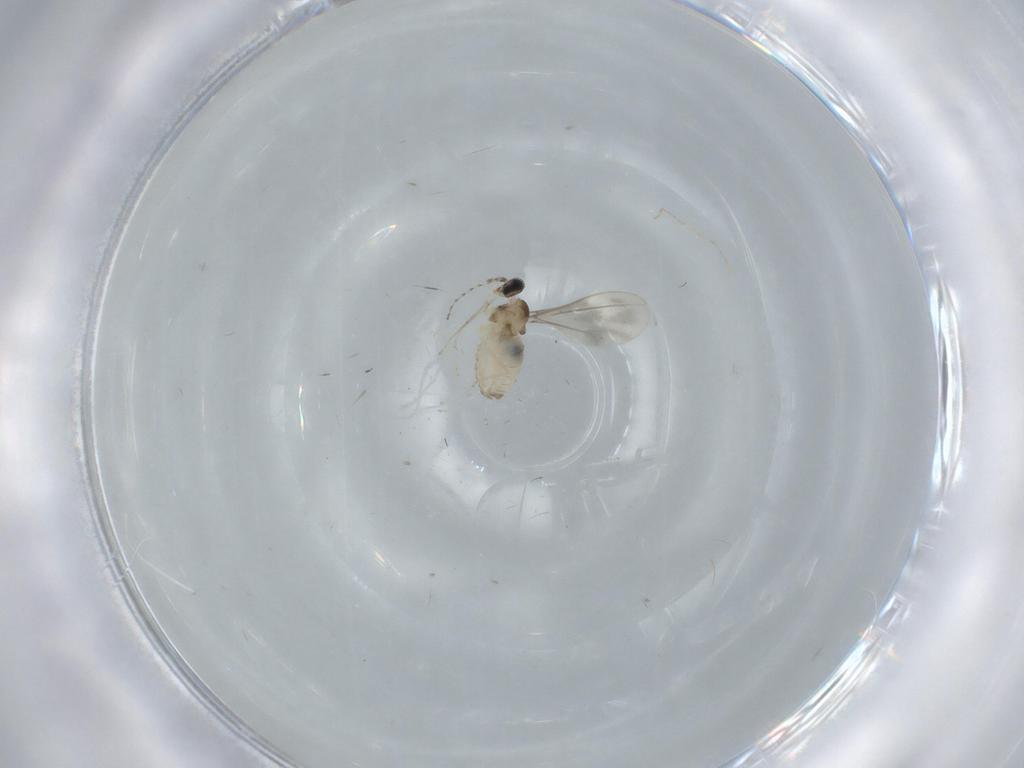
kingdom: Animalia
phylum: Arthropoda
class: Insecta
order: Diptera
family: Cecidomyiidae
